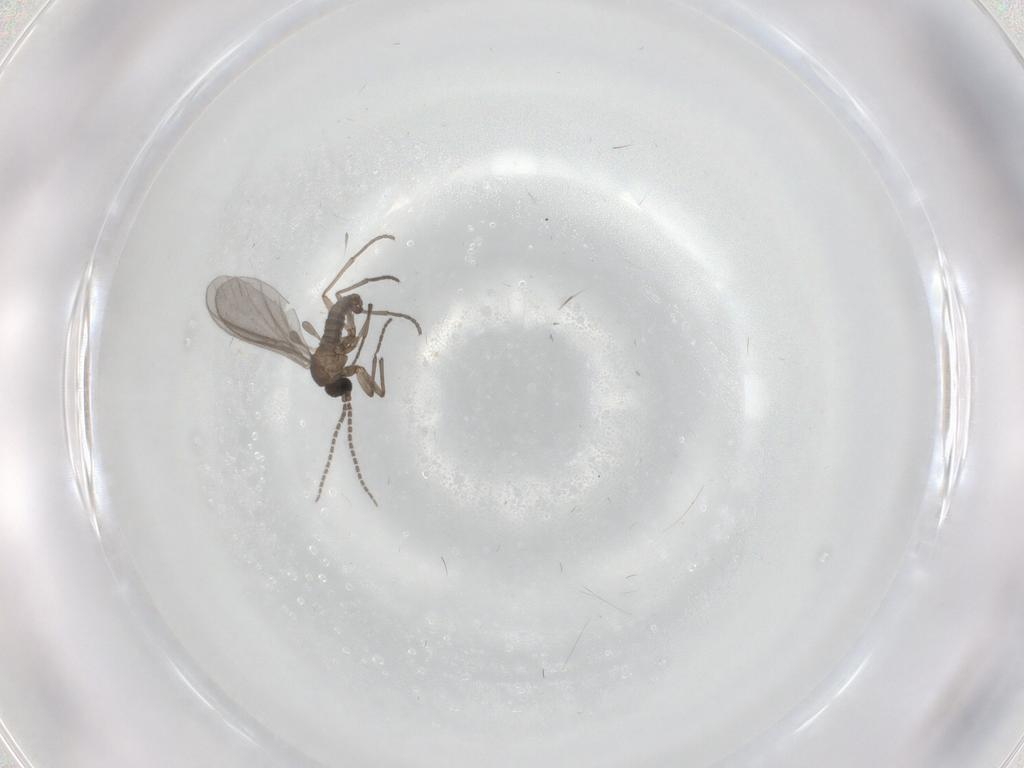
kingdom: Animalia
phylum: Arthropoda
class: Insecta
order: Diptera
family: Sciaridae
